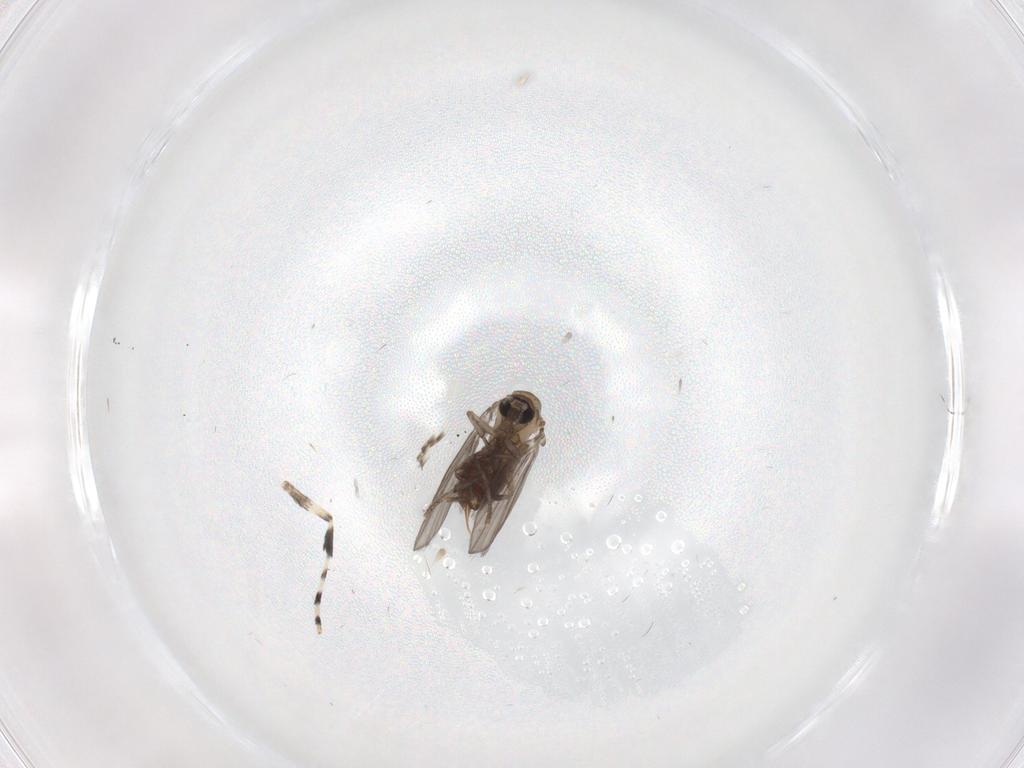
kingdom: Animalia
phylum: Arthropoda
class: Insecta
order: Diptera
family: Psychodidae
